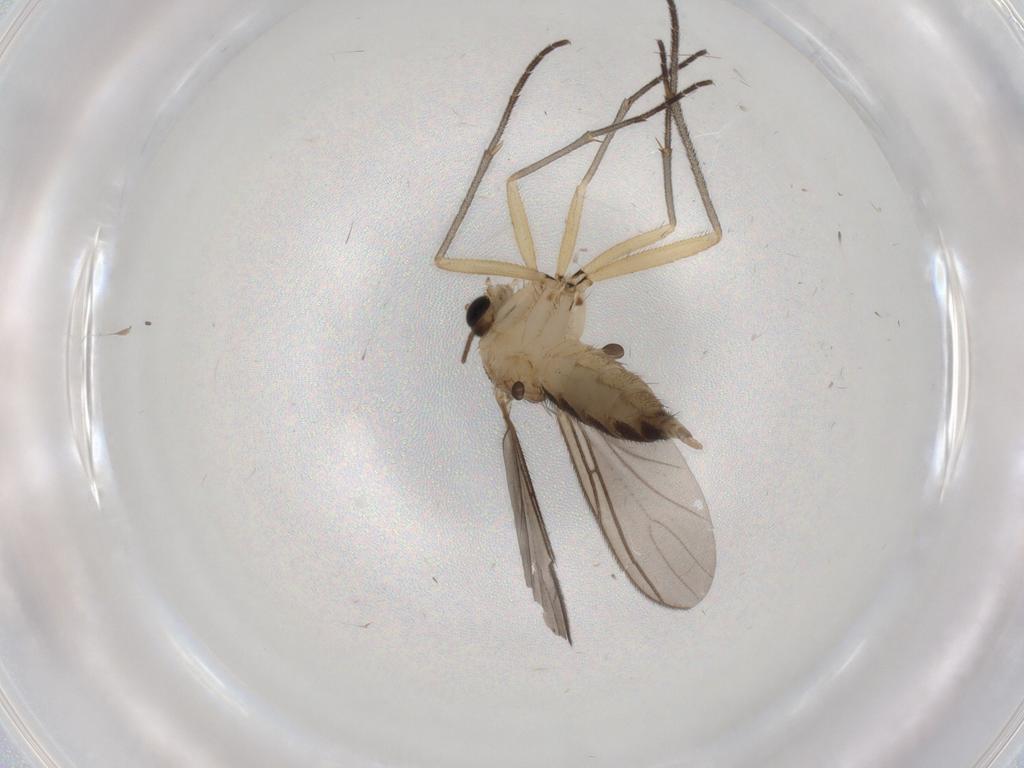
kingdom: Animalia
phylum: Arthropoda
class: Insecta
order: Diptera
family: Sciaridae
